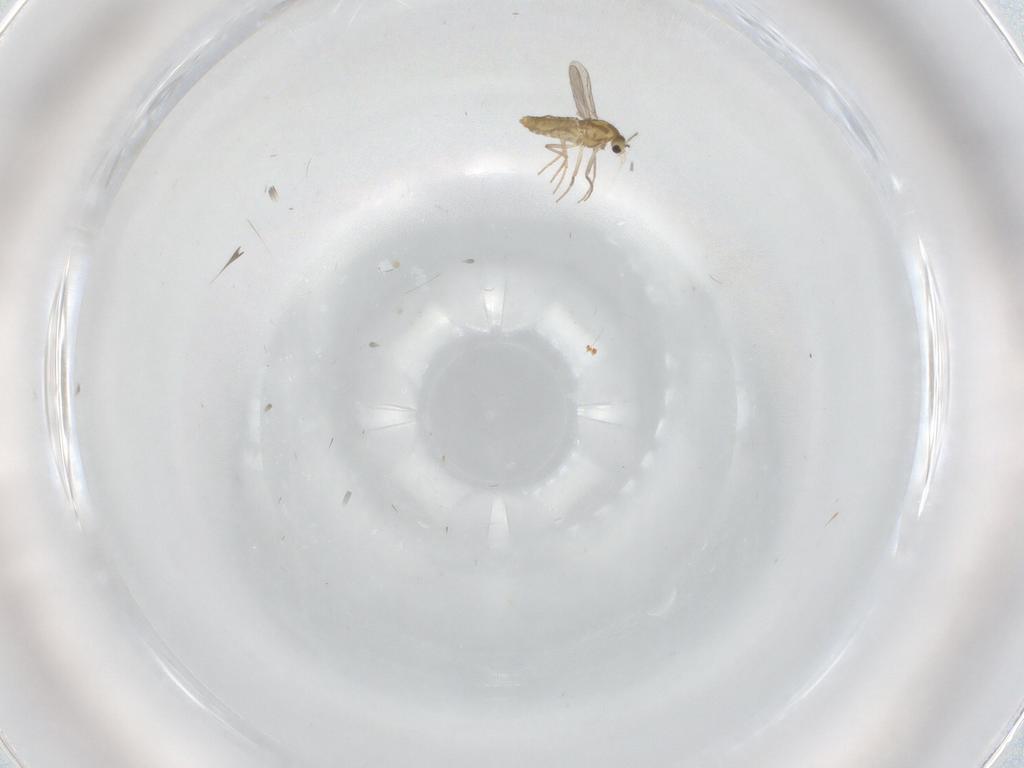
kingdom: Animalia
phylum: Arthropoda
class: Insecta
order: Diptera
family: Chironomidae
